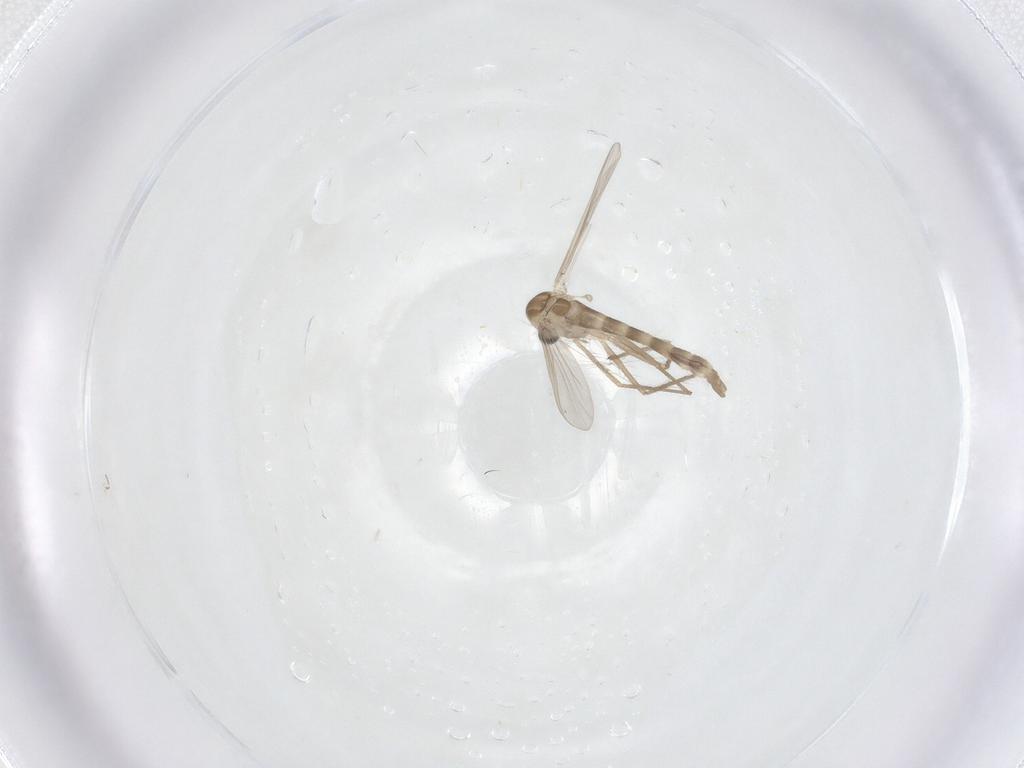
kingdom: Animalia
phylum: Arthropoda
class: Insecta
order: Diptera
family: Chironomidae
